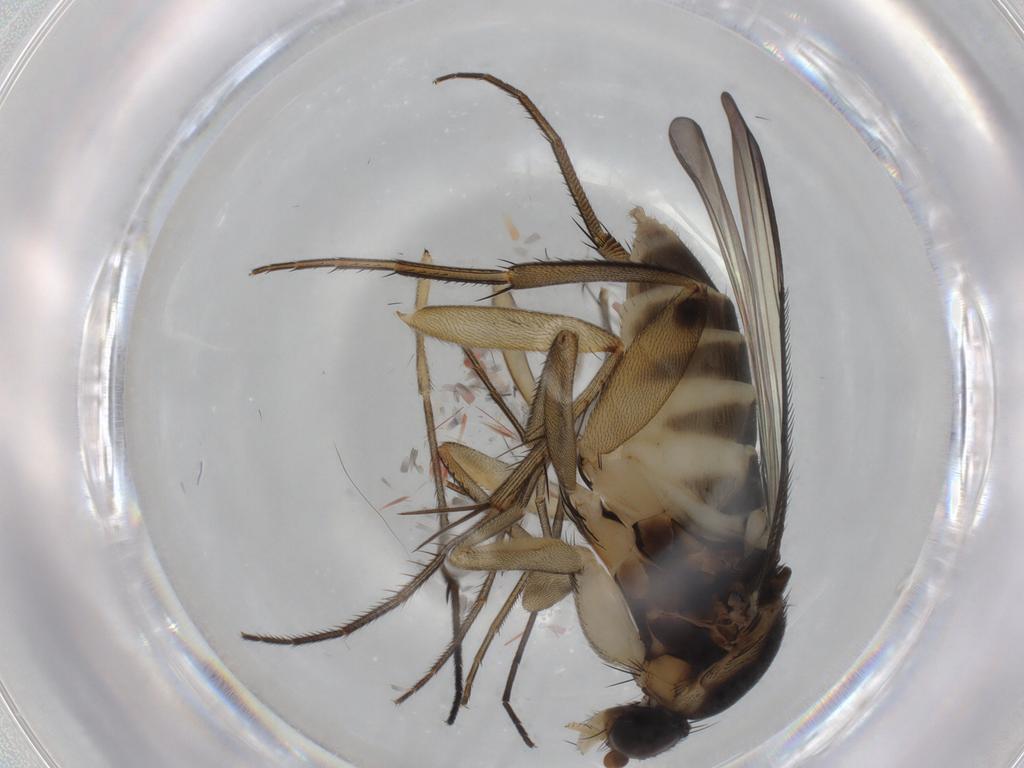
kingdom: Animalia
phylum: Arthropoda
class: Insecta
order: Diptera
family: Phoridae
